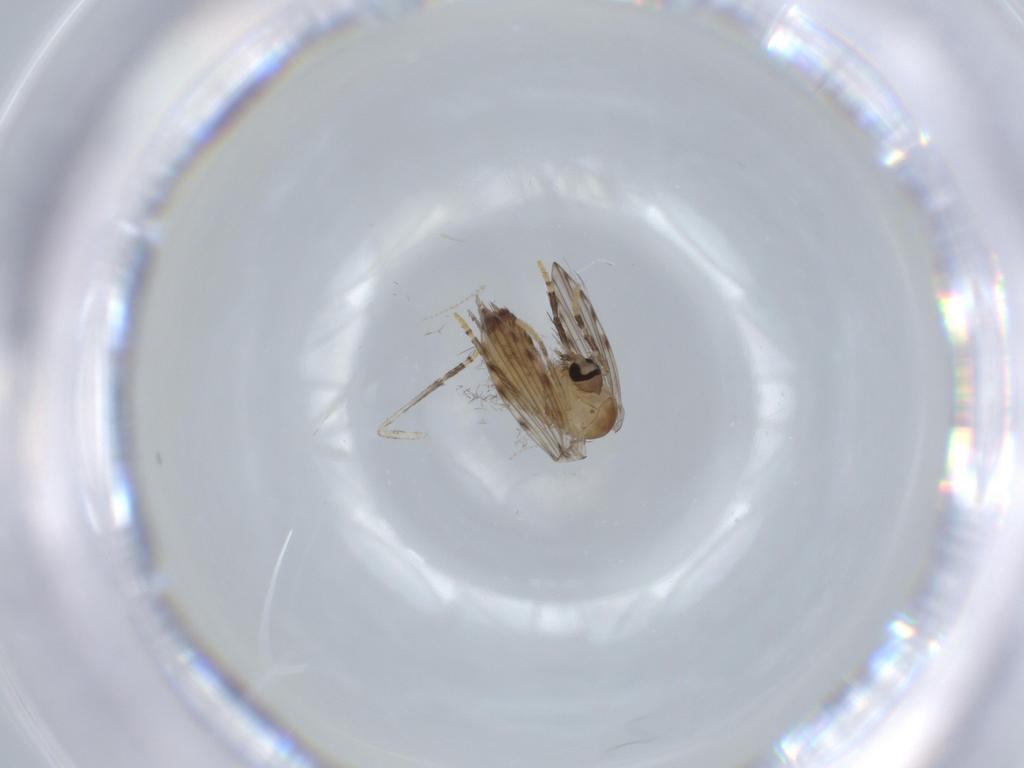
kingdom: Animalia
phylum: Arthropoda
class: Insecta
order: Diptera
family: Psychodidae
